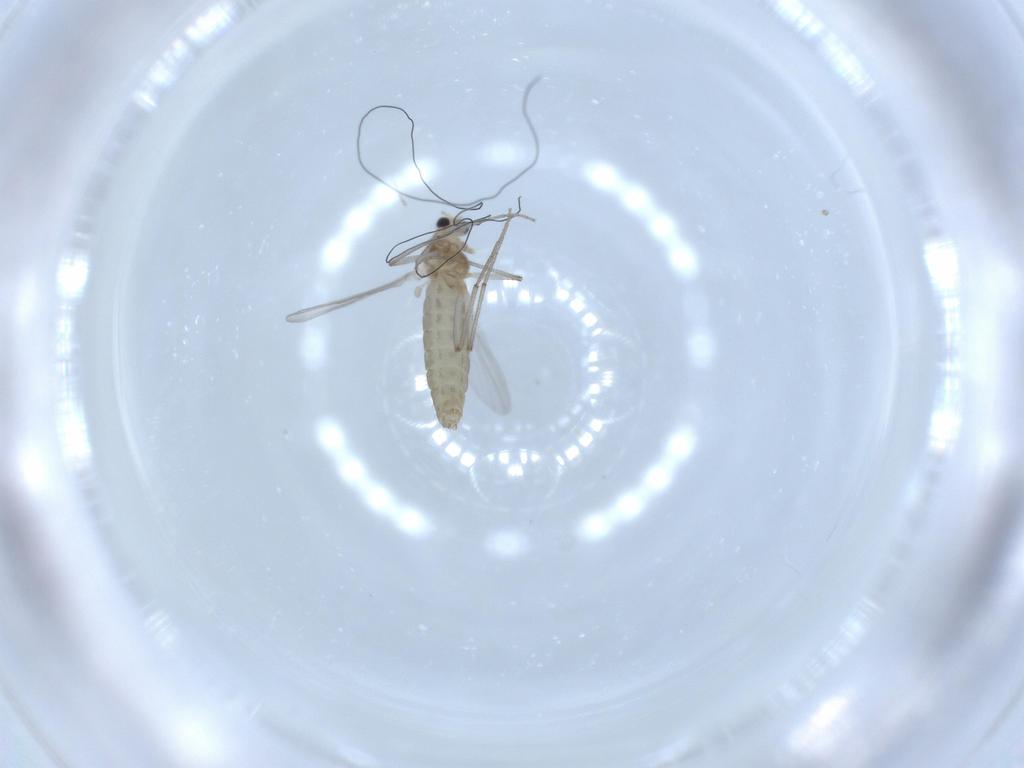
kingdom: Animalia
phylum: Arthropoda
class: Insecta
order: Diptera
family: Chironomidae
